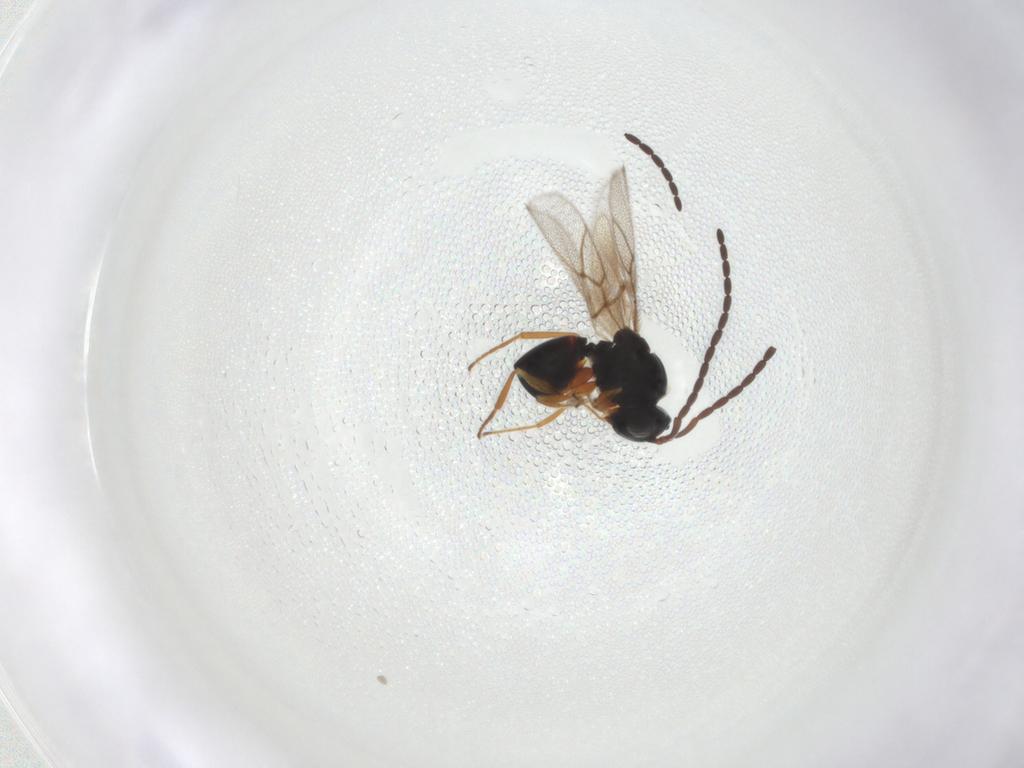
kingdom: Animalia
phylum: Arthropoda
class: Insecta
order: Hymenoptera
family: Figitidae
